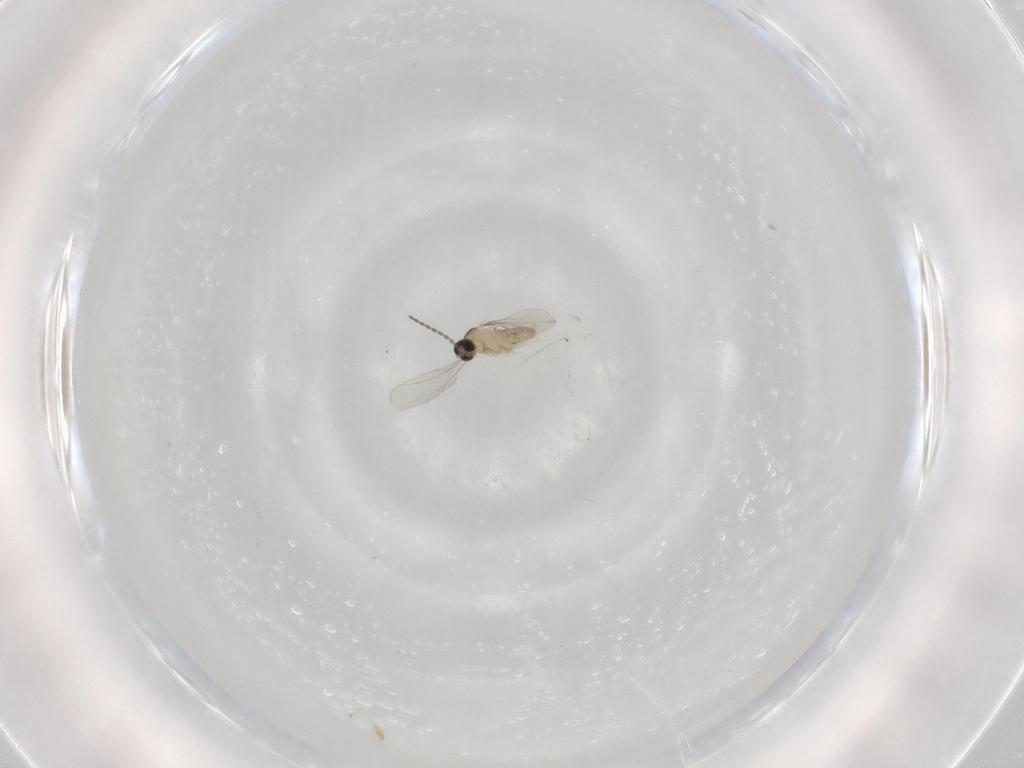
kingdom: Animalia
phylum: Arthropoda
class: Insecta
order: Diptera
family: Cecidomyiidae
